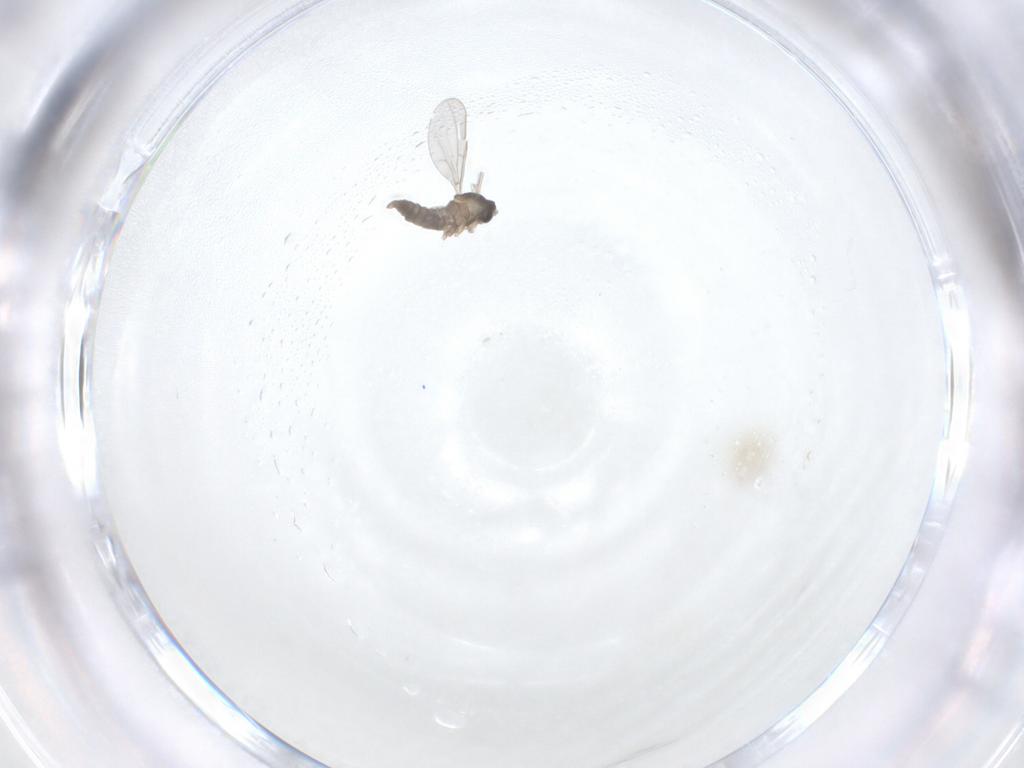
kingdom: Animalia
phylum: Arthropoda
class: Insecta
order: Diptera
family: Cecidomyiidae
